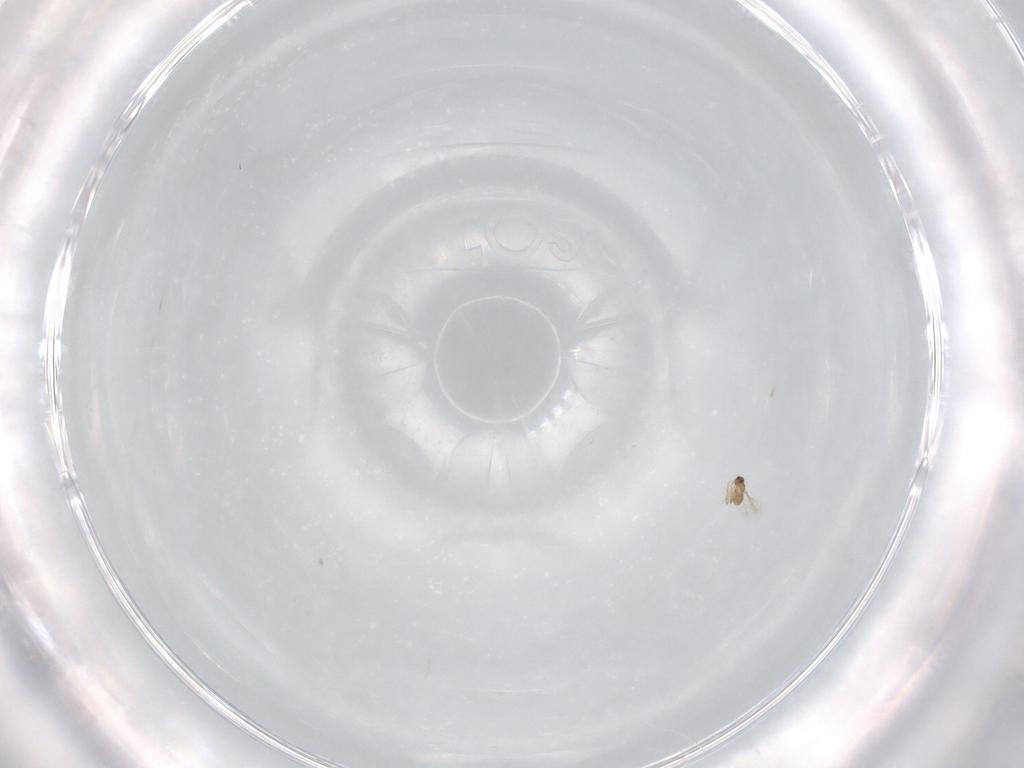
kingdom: Animalia
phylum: Arthropoda
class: Insecta
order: Hymenoptera
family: Mymaridae
